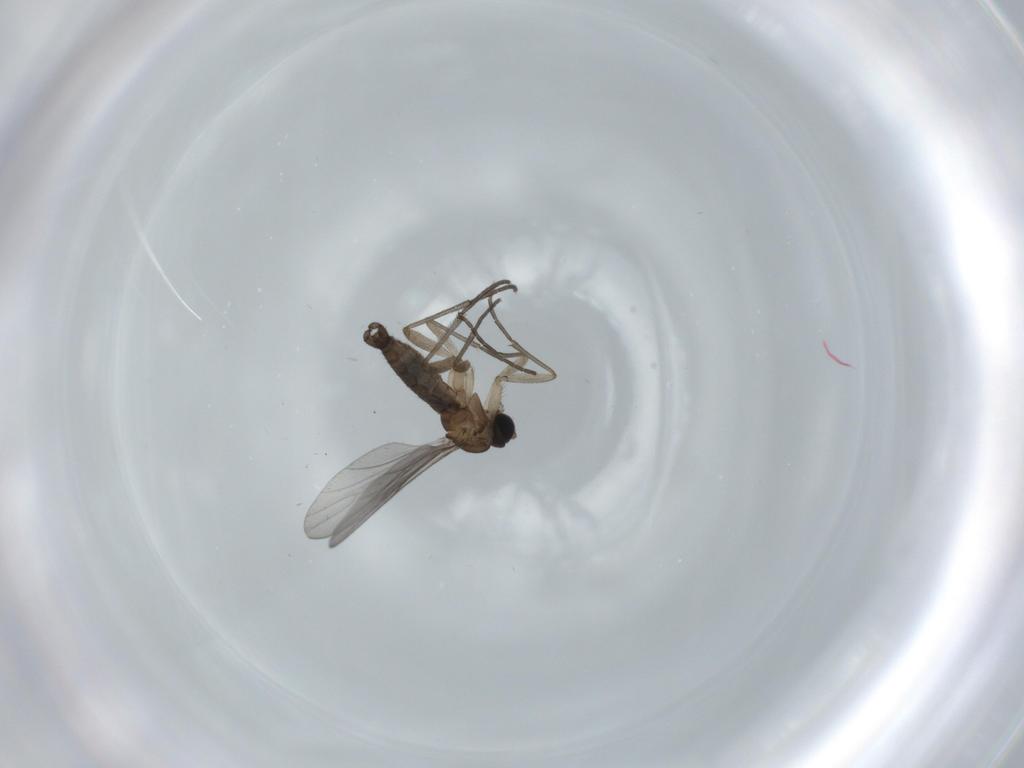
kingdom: Animalia
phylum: Arthropoda
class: Insecta
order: Diptera
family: Sciaridae
